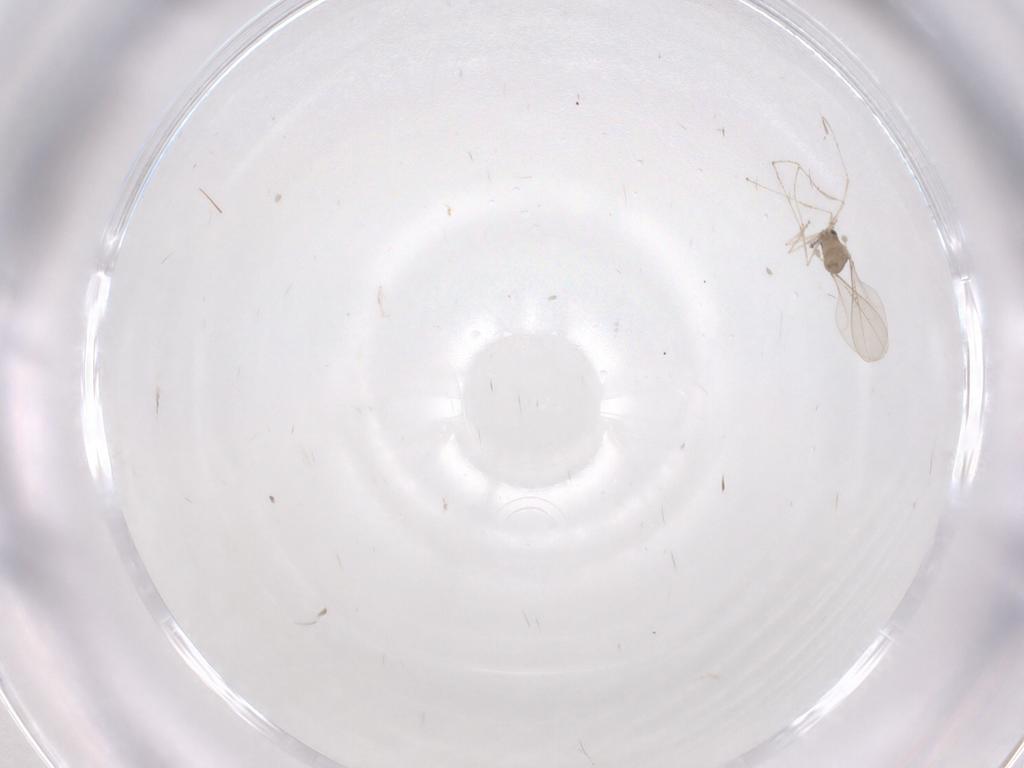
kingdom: Animalia
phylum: Arthropoda
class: Insecta
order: Diptera
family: Cecidomyiidae
